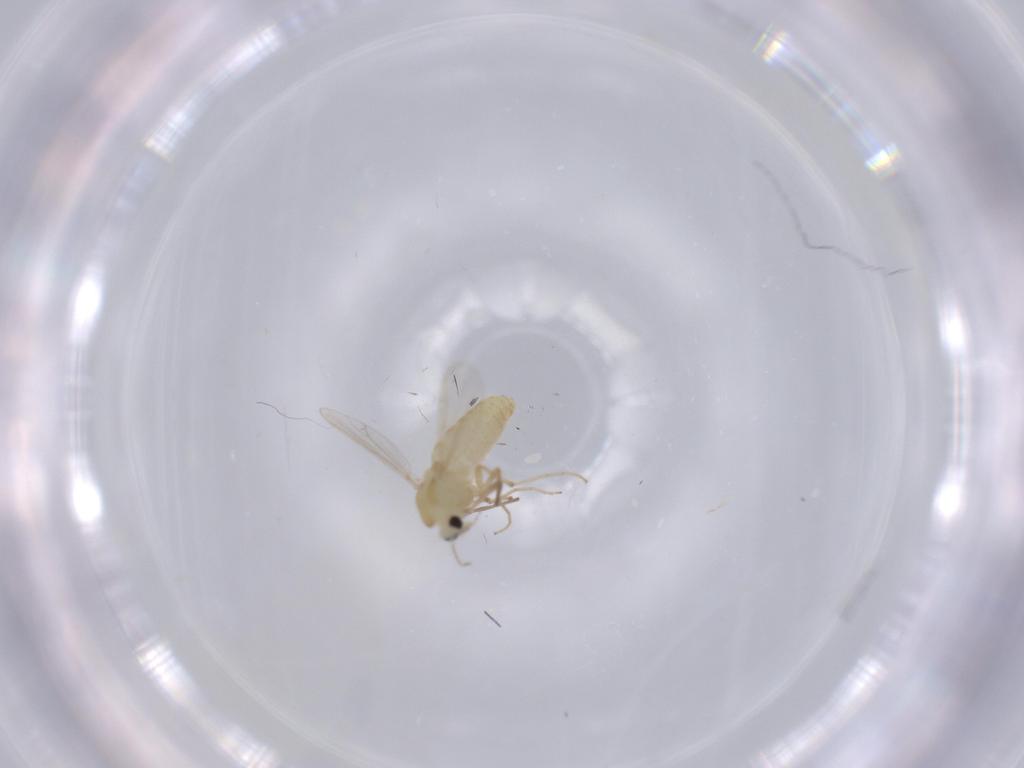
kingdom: Animalia
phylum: Arthropoda
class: Insecta
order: Diptera
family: Chironomidae
